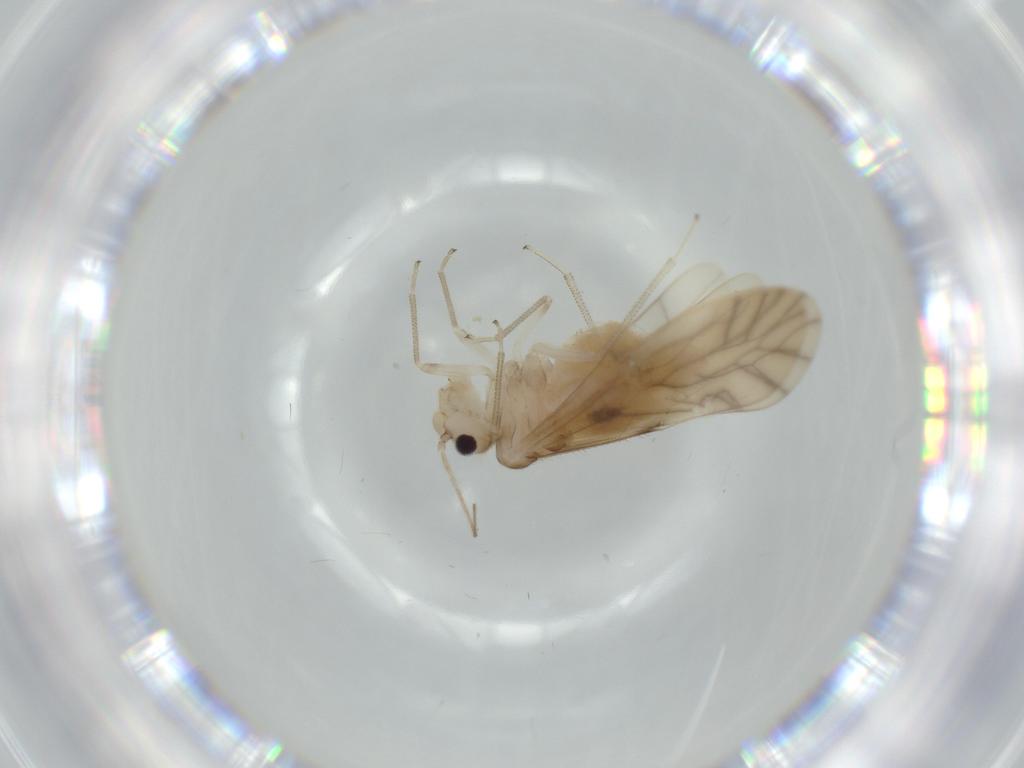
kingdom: Animalia
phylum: Arthropoda
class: Insecta
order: Psocodea
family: Caeciliusidae
